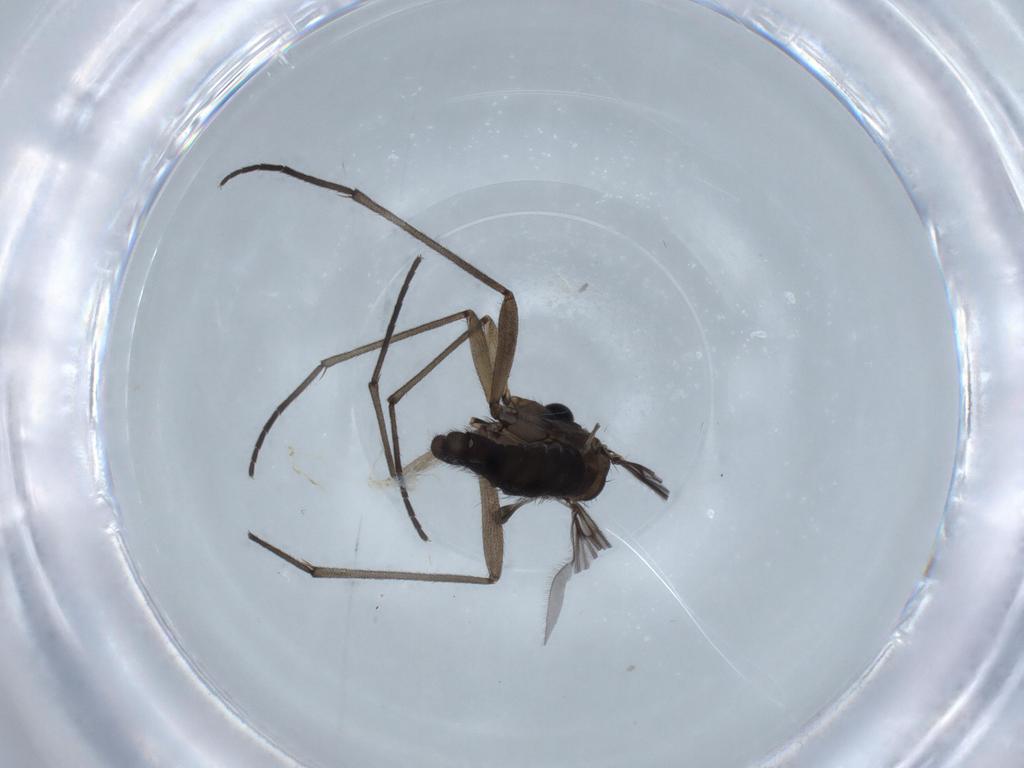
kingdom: Animalia
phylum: Arthropoda
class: Insecta
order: Diptera
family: Sciaridae
